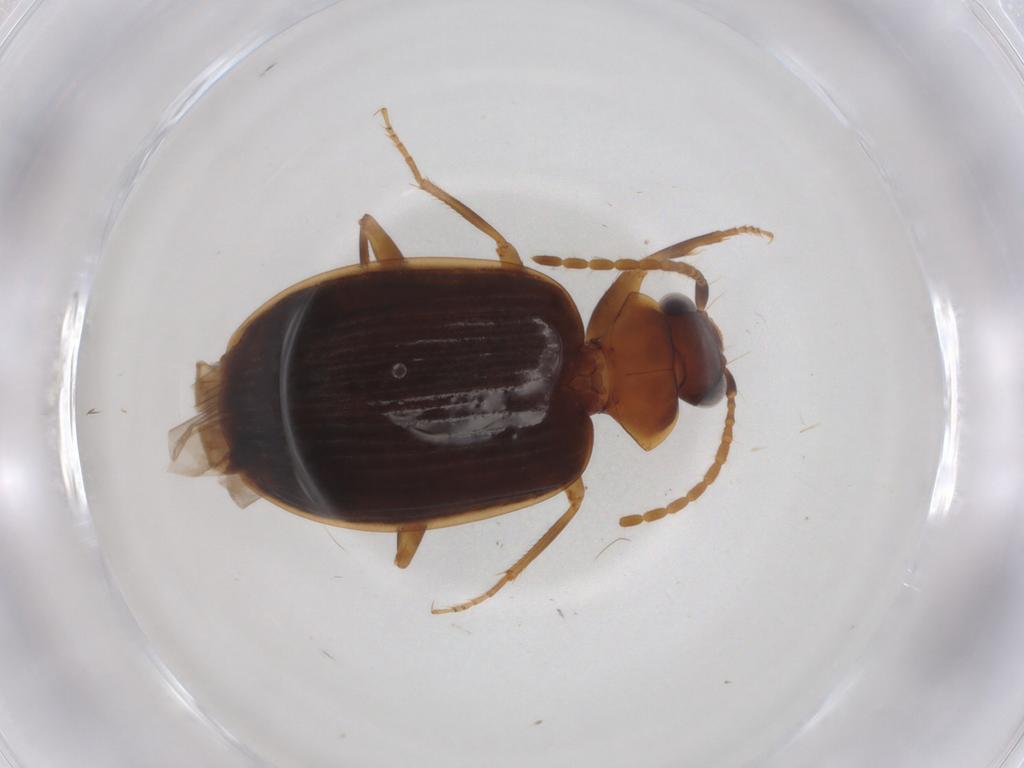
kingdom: Animalia
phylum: Arthropoda
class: Insecta
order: Coleoptera
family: Carabidae
